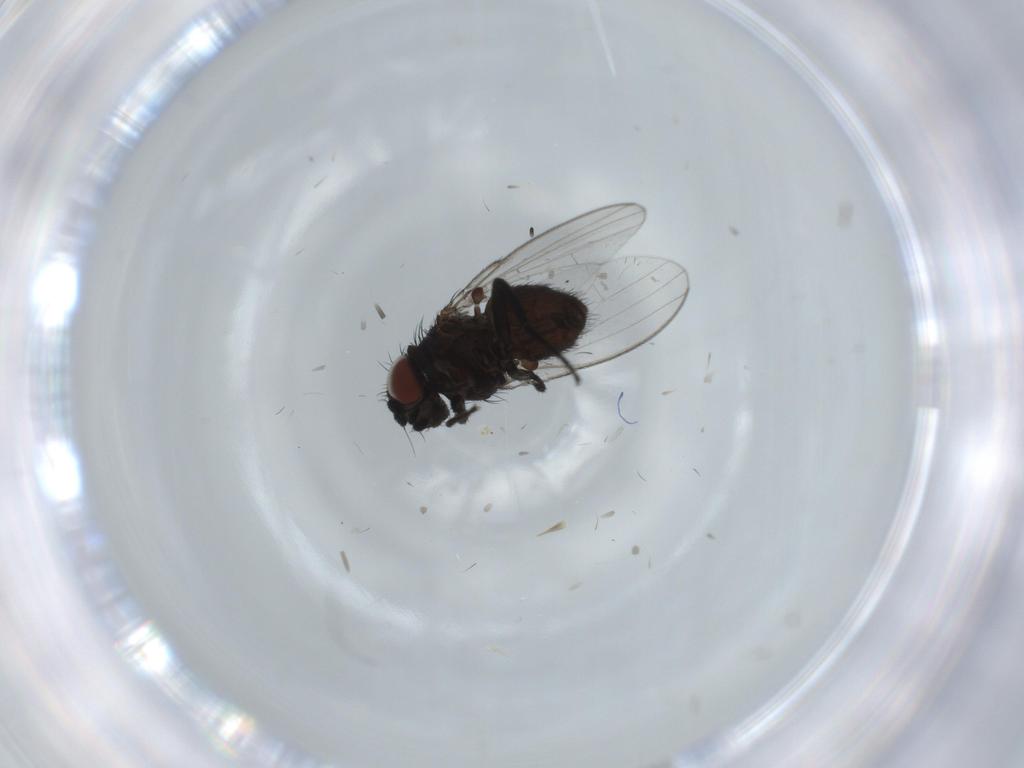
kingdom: Animalia
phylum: Arthropoda
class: Insecta
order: Diptera
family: Milichiidae
